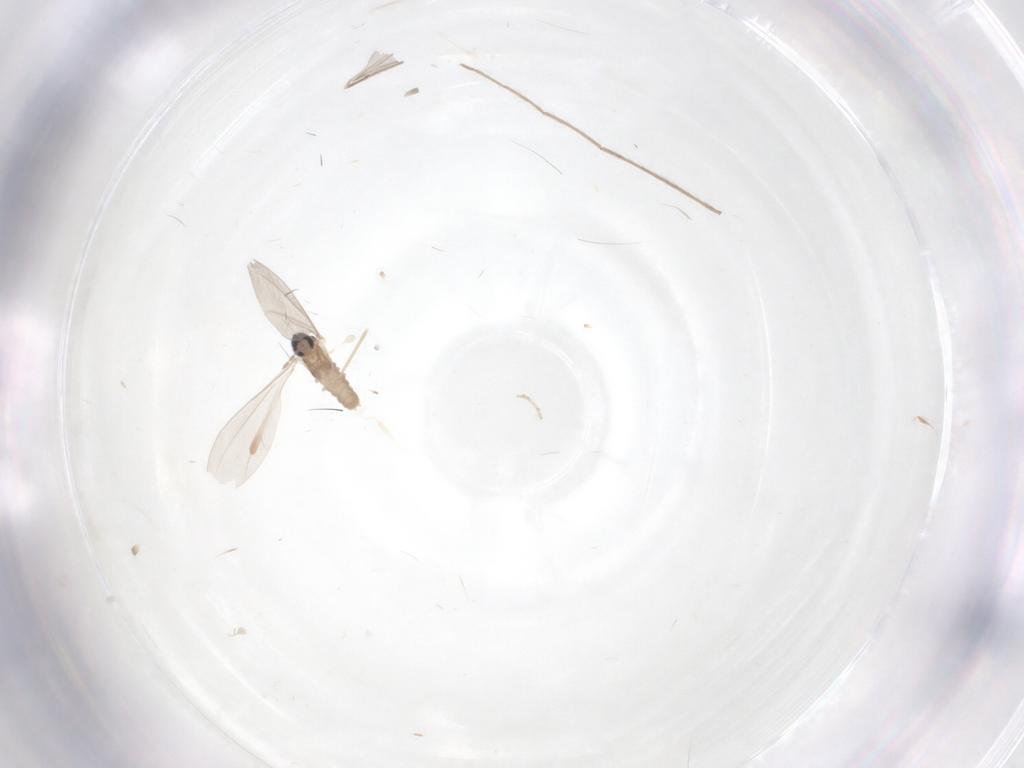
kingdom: Animalia
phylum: Arthropoda
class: Insecta
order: Diptera
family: Cecidomyiidae
